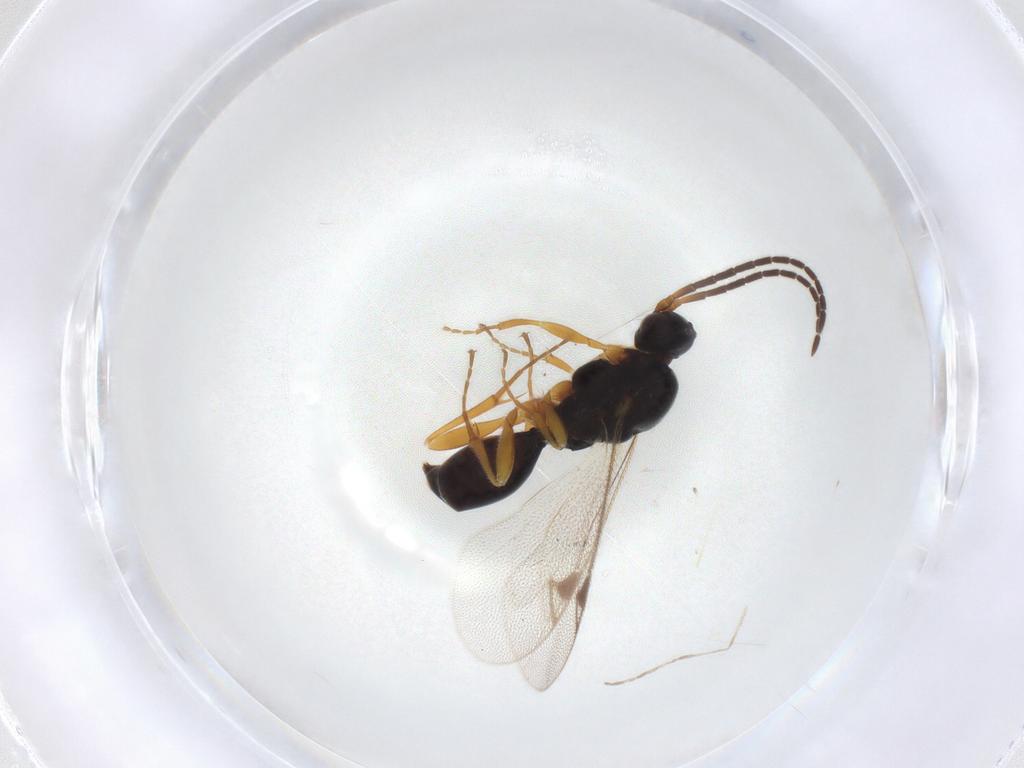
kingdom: Animalia
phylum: Arthropoda
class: Insecta
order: Hymenoptera
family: Proctotrupidae
